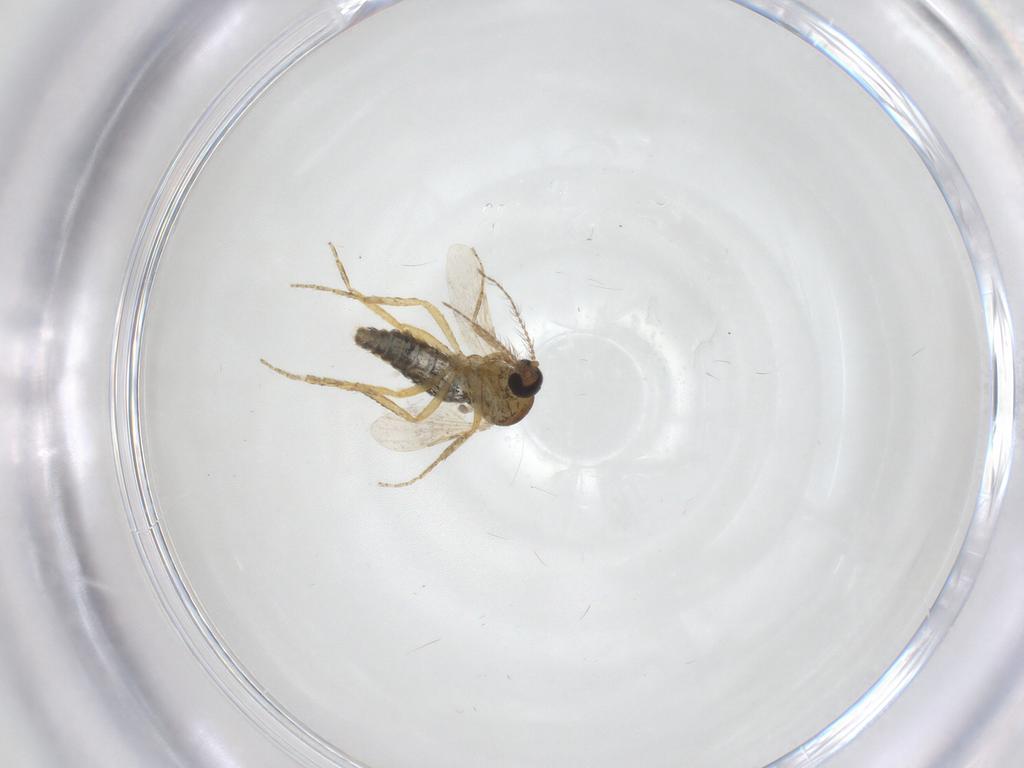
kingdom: Animalia
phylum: Arthropoda
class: Insecta
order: Diptera
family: Ceratopogonidae
